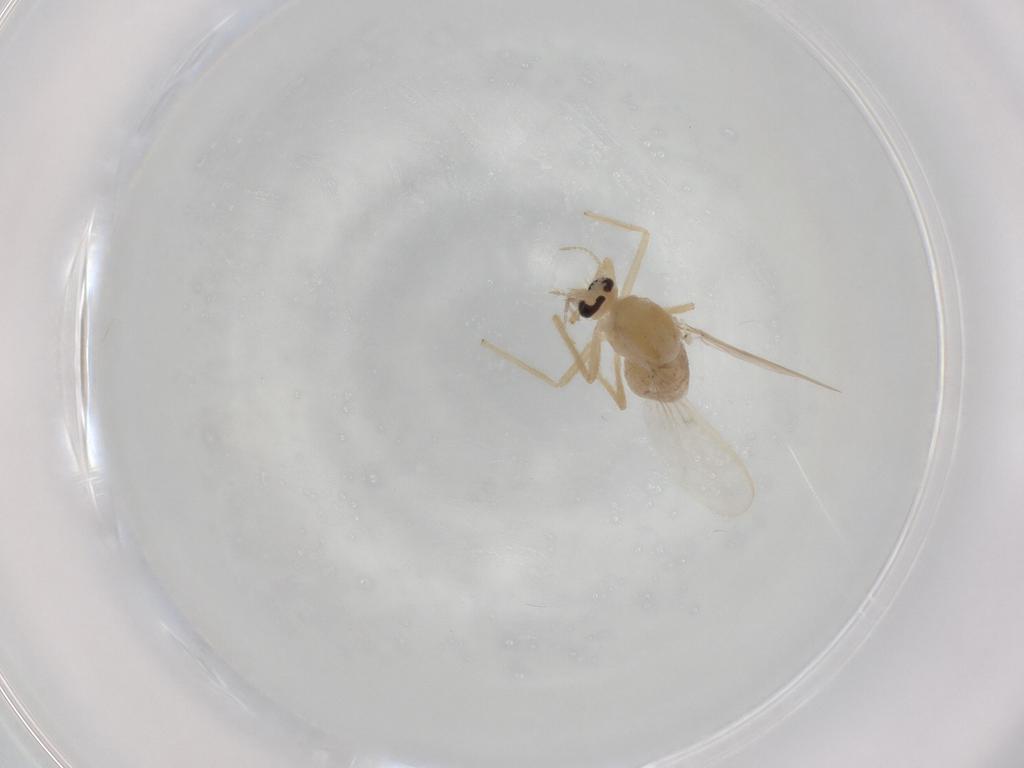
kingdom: Animalia
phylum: Arthropoda
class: Insecta
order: Diptera
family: Chironomidae
